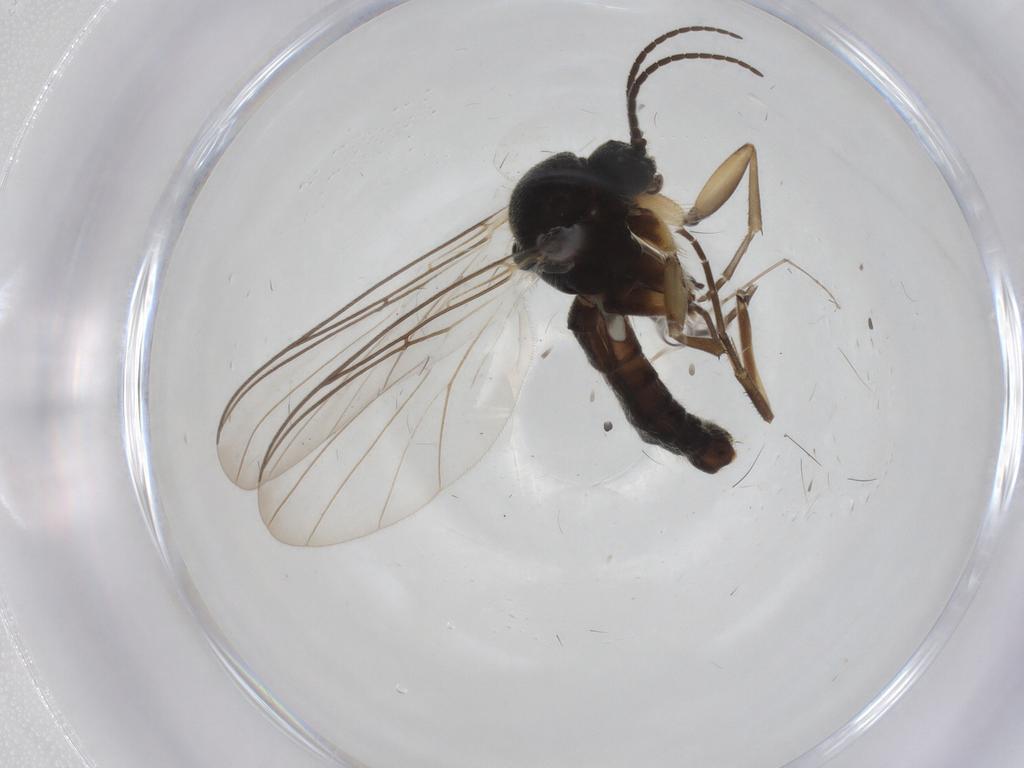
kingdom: Animalia
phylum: Arthropoda
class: Insecta
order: Diptera
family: Mycetophilidae
